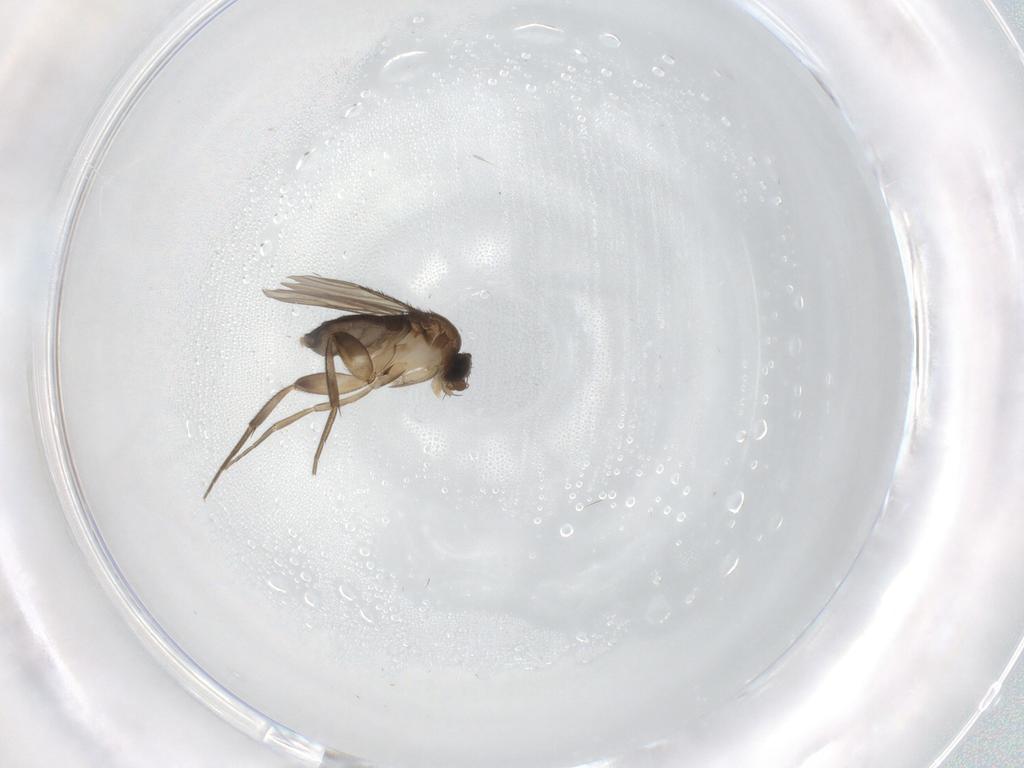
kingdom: Animalia
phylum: Arthropoda
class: Insecta
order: Diptera
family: Phoridae
